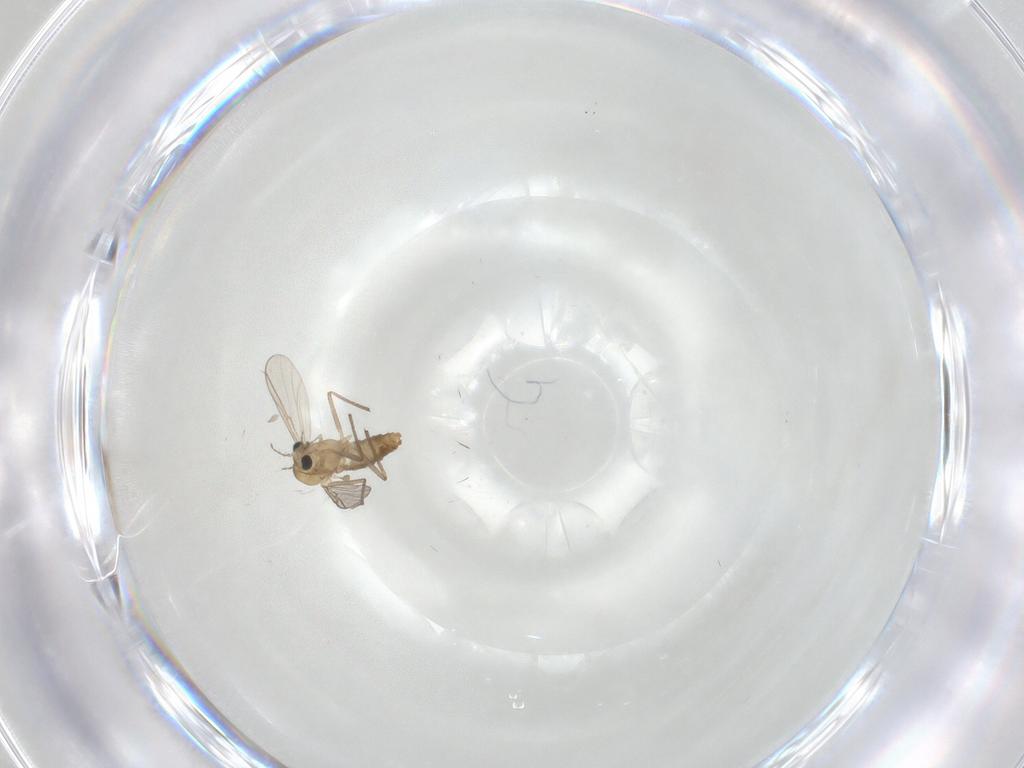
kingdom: Animalia
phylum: Arthropoda
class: Insecta
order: Diptera
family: Chironomidae
